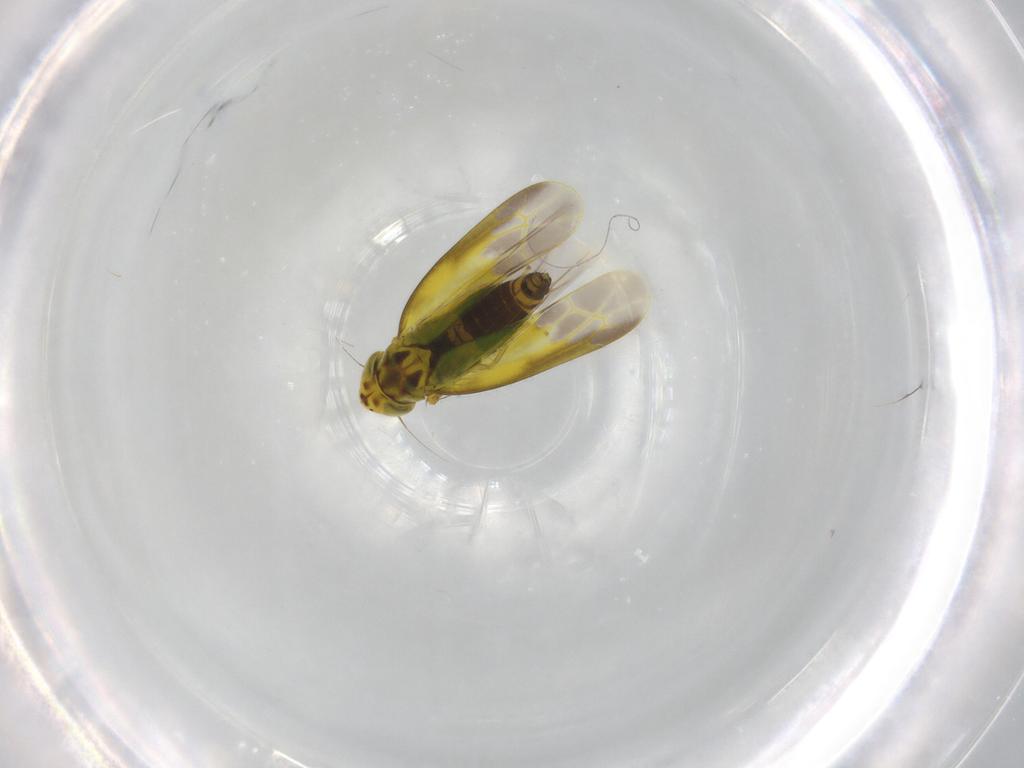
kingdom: Animalia
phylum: Arthropoda
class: Insecta
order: Hemiptera
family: Cicadellidae
